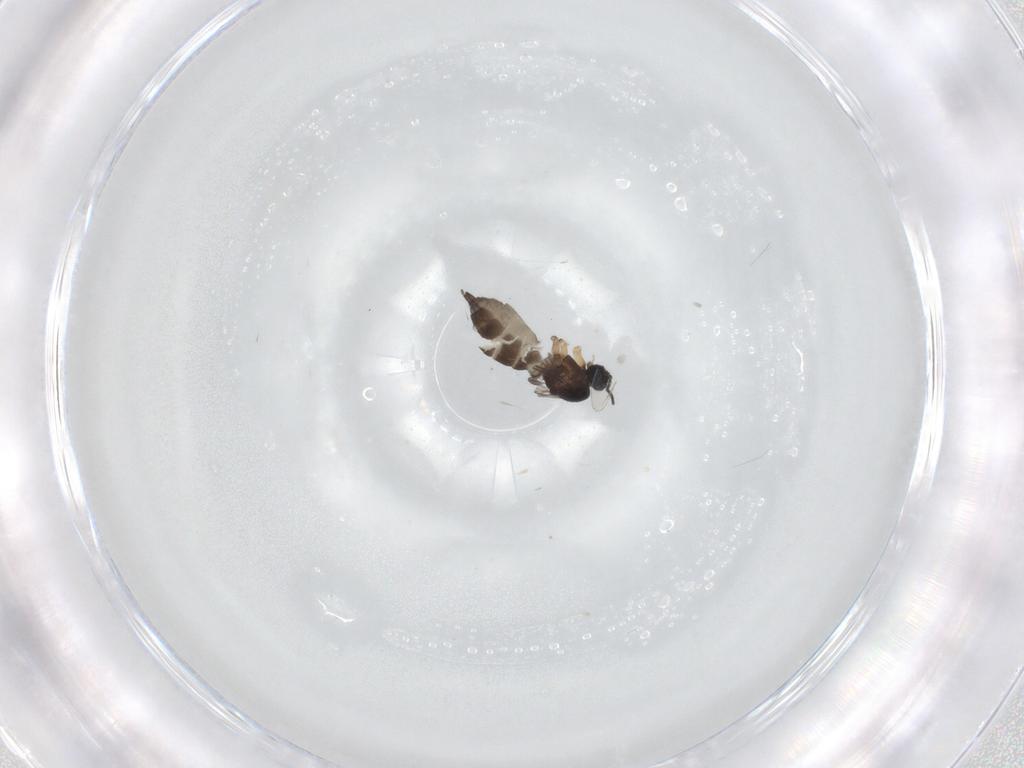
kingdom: Animalia
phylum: Arthropoda
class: Insecta
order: Diptera
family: Sciaridae
